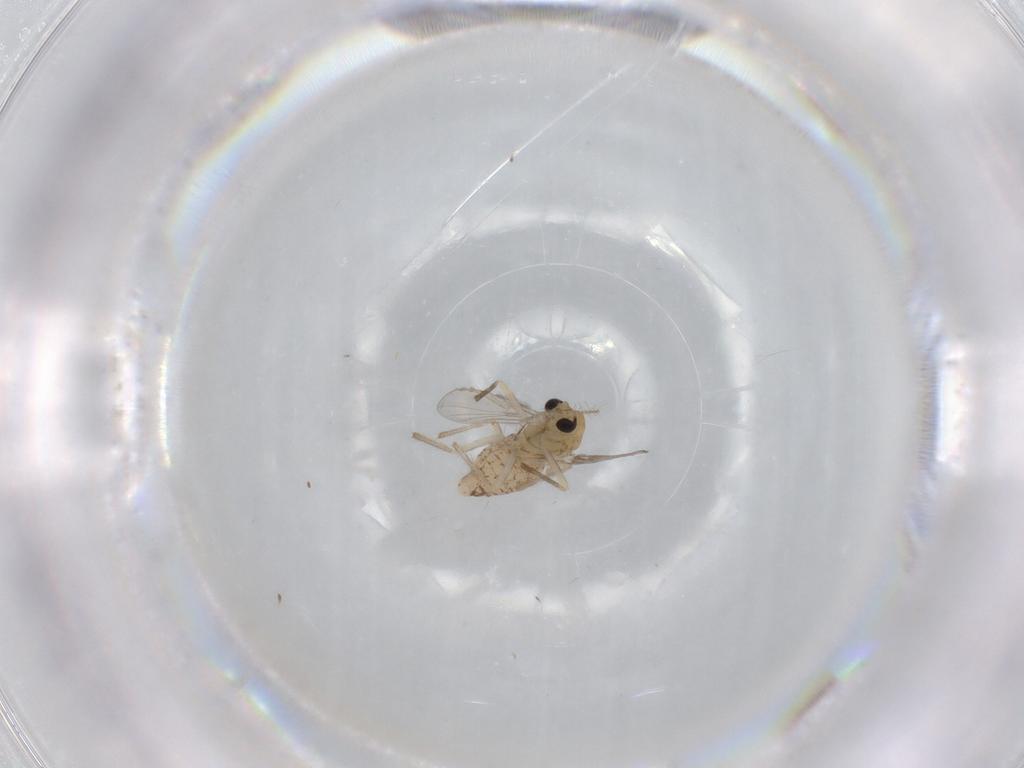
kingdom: Animalia
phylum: Arthropoda
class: Insecta
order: Diptera
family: Chironomidae
